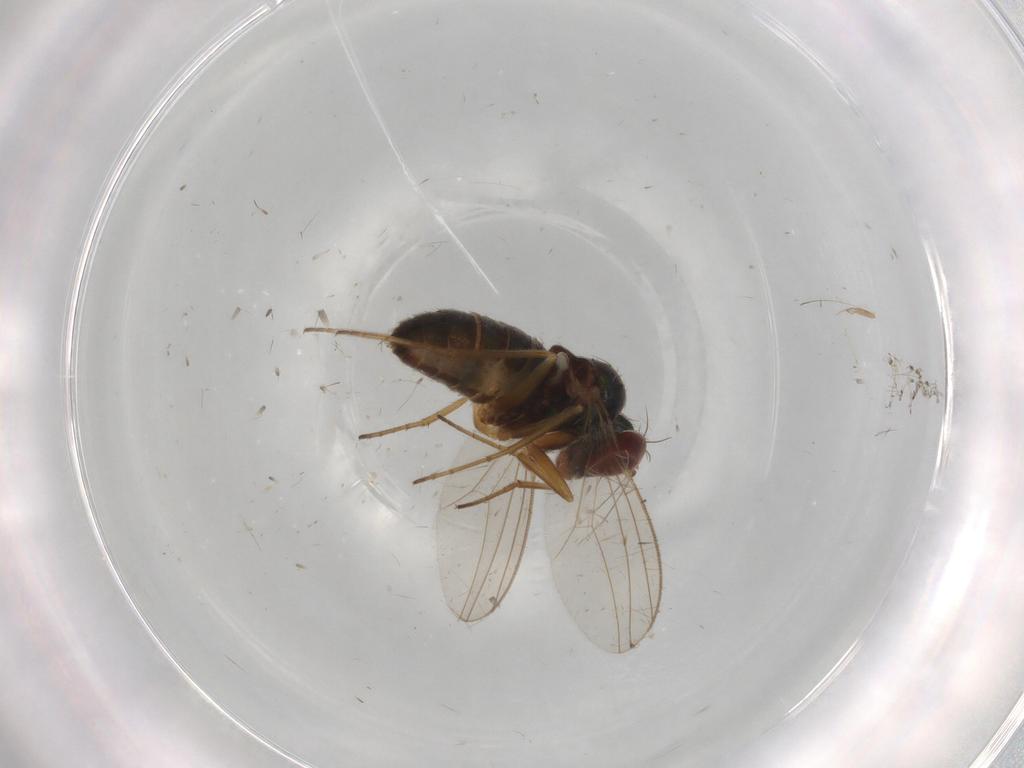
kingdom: Animalia
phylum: Arthropoda
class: Insecta
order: Diptera
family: Dolichopodidae
